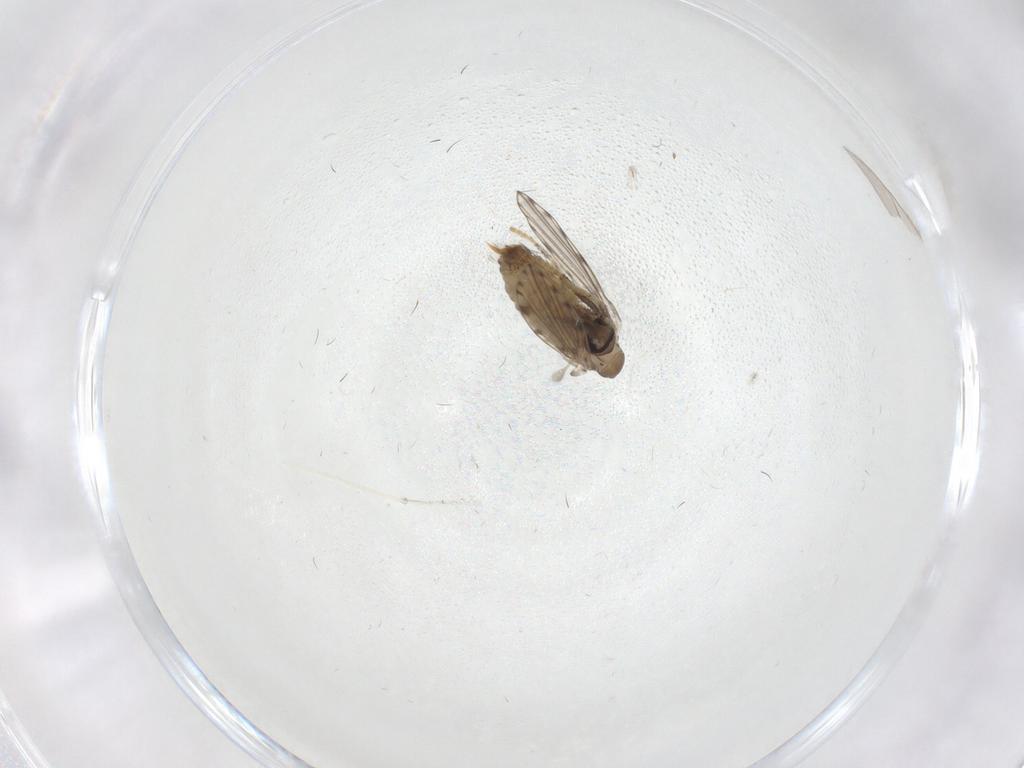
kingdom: Animalia
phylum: Arthropoda
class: Insecta
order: Diptera
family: Psychodidae
